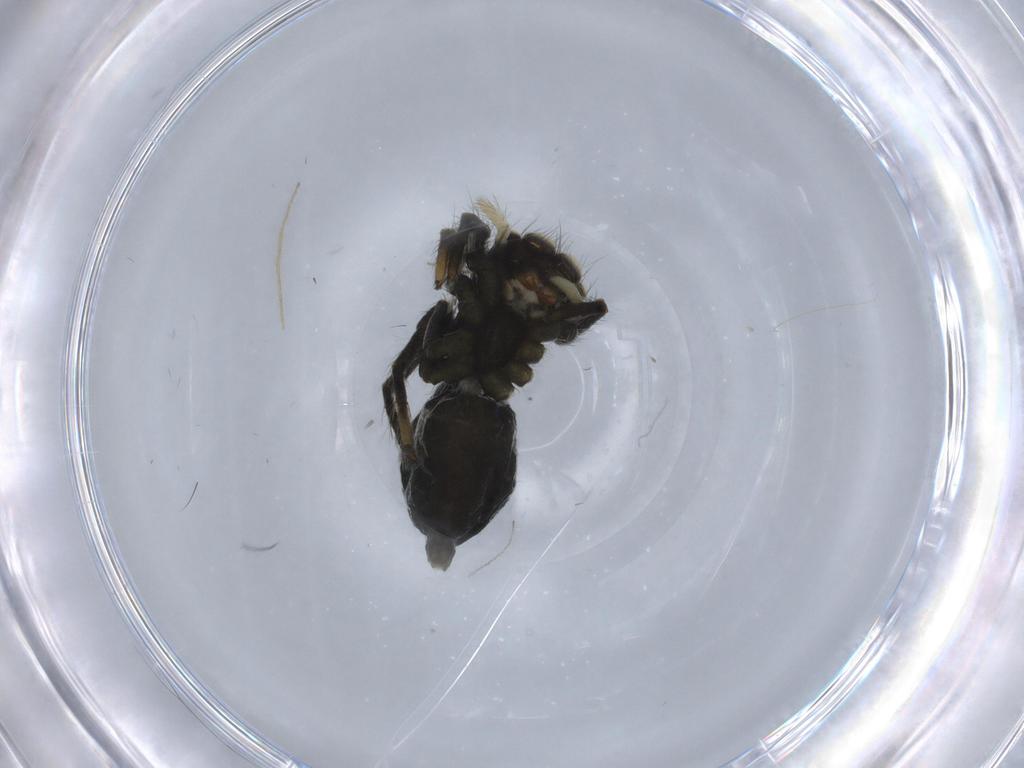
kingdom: Animalia
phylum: Arthropoda
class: Arachnida
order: Araneae
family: Salticidae
